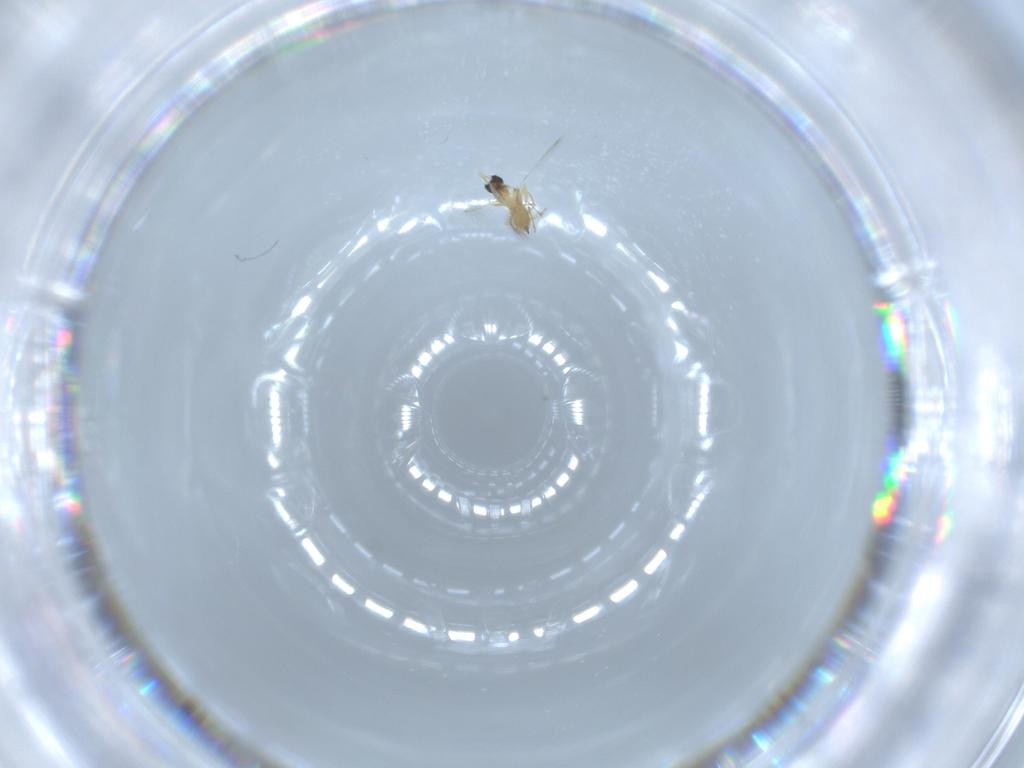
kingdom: Animalia
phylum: Arthropoda
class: Insecta
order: Hymenoptera
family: Mymaridae
